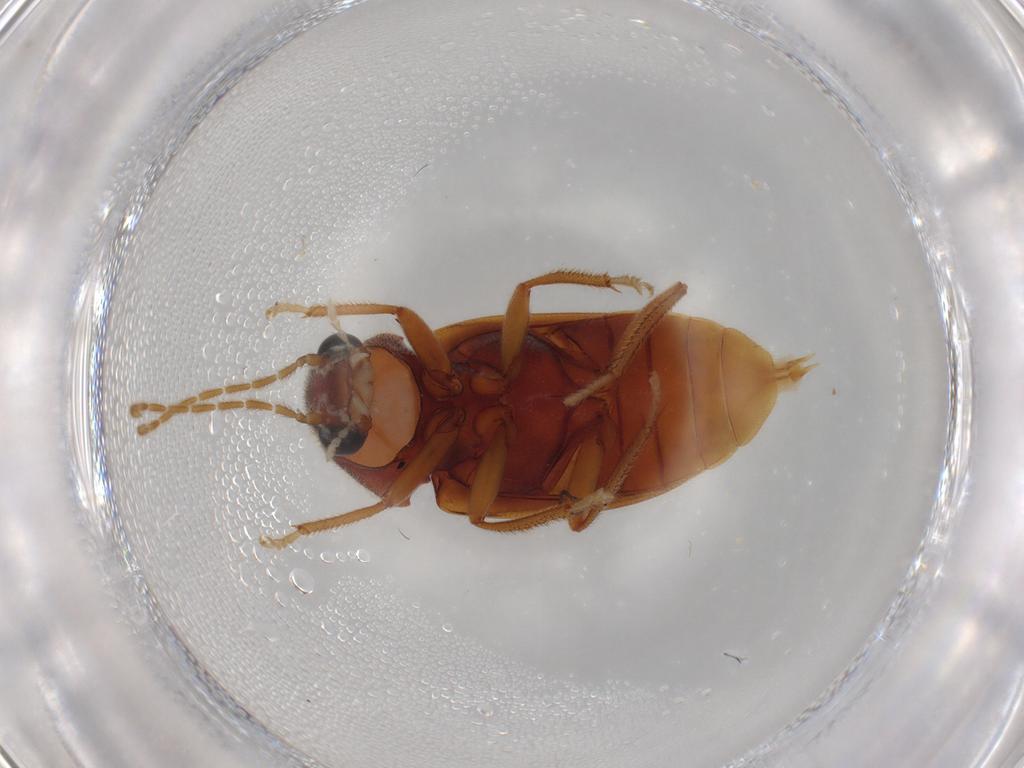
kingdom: Animalia
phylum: Arthropoda
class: Insecta
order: Coleoptera
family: Ptilodactylidae
